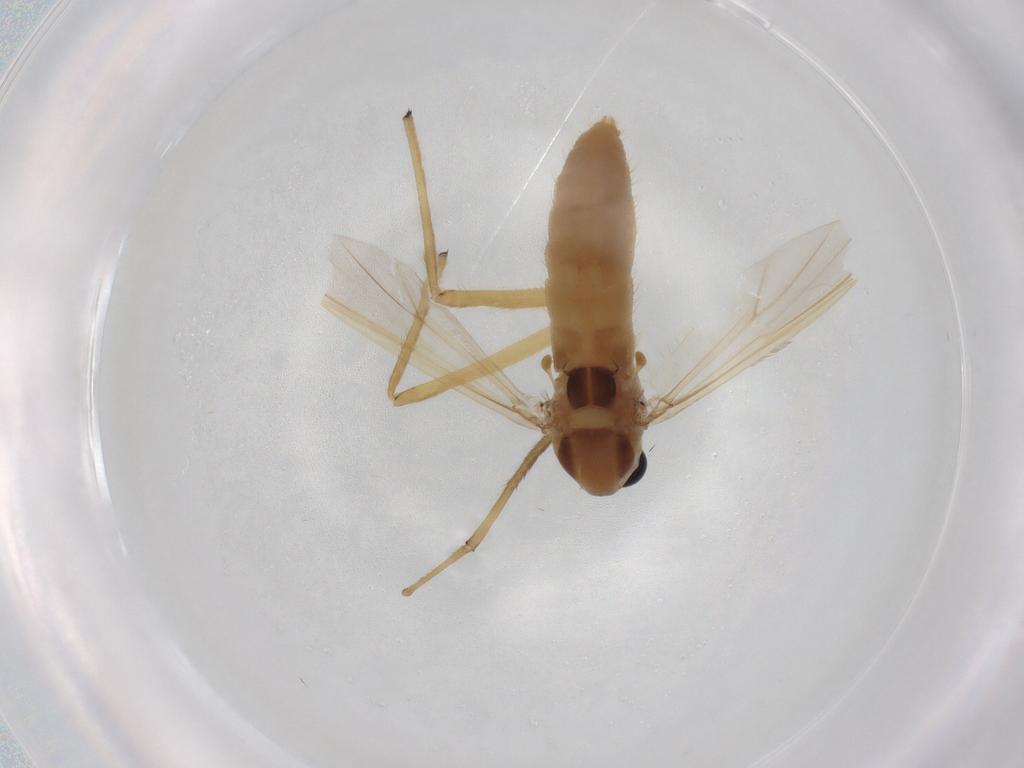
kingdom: Animalia
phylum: Arthropoda
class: Insecta
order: Diptera
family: Chironomidae
